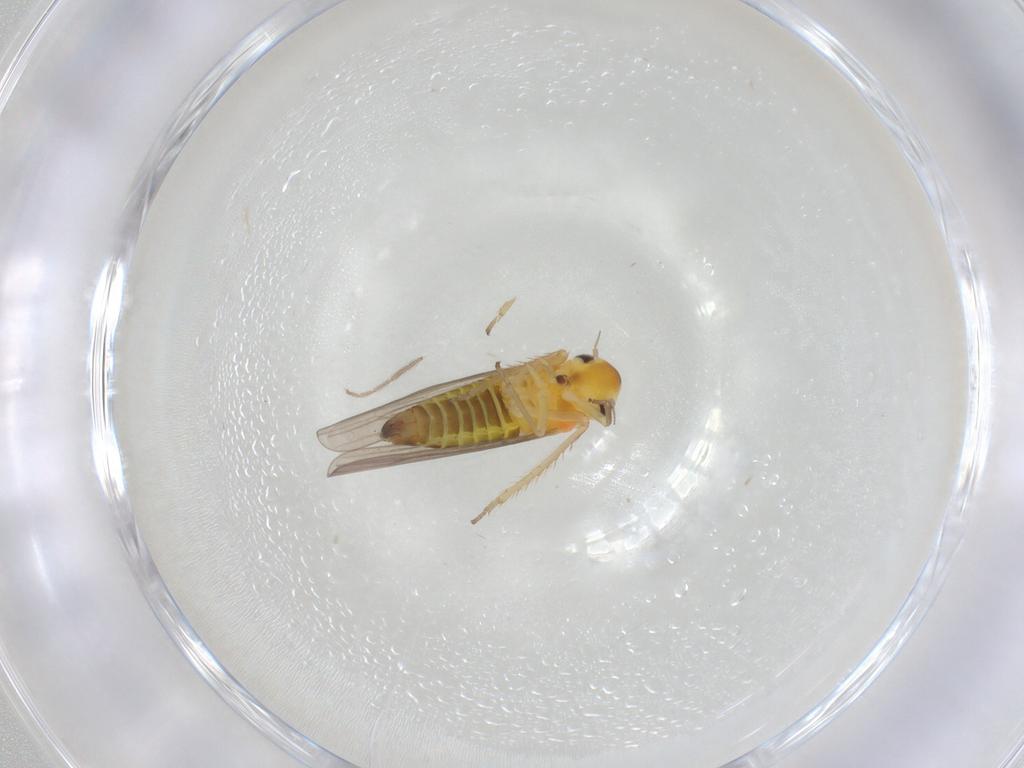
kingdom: Animalia
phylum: Arthropoda
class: Insecta
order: Hemiptera
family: Cicadellidae
